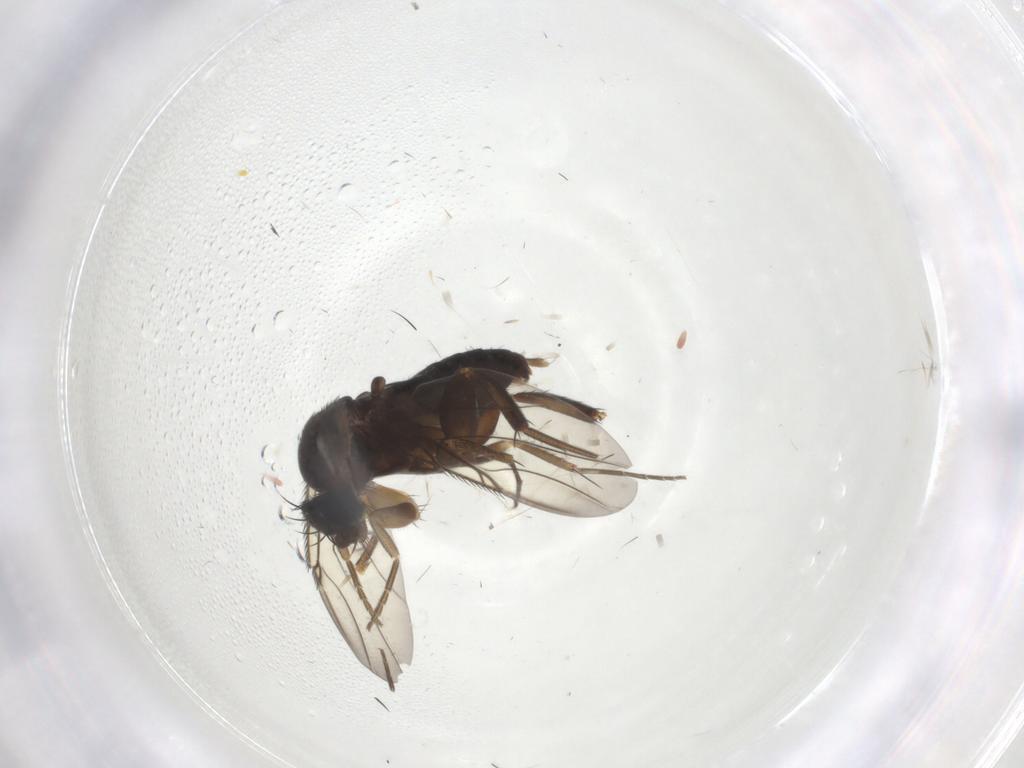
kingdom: Animalia
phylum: Arthropoda
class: Insecta
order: Diptera
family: Phoridae
